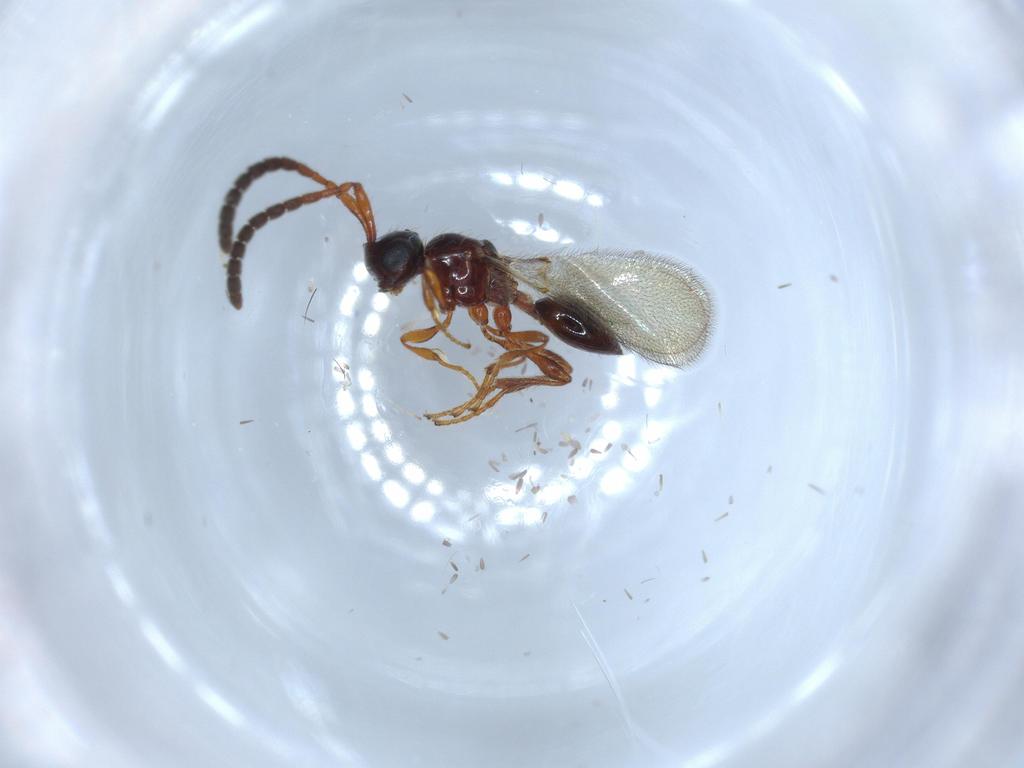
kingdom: Animalia
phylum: Arthropoda
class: Insecta
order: Hymenoptera
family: Diapriidae
